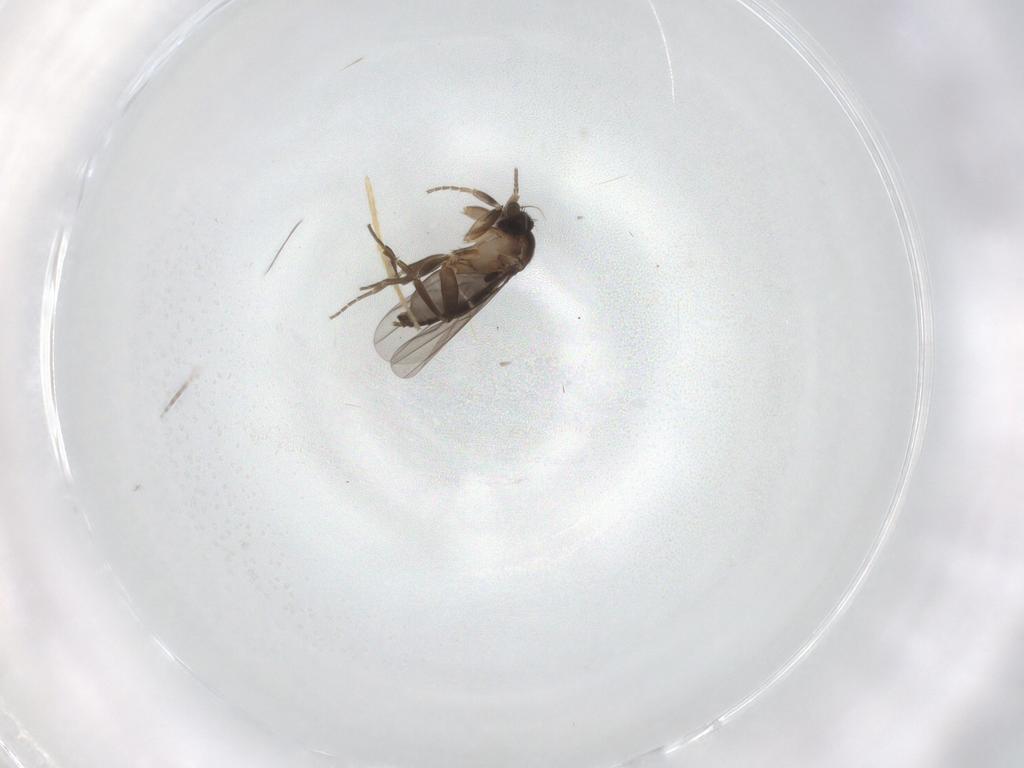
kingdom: Animalia
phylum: Arthropoda
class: Insecta
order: Diptera
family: Chironomidae
